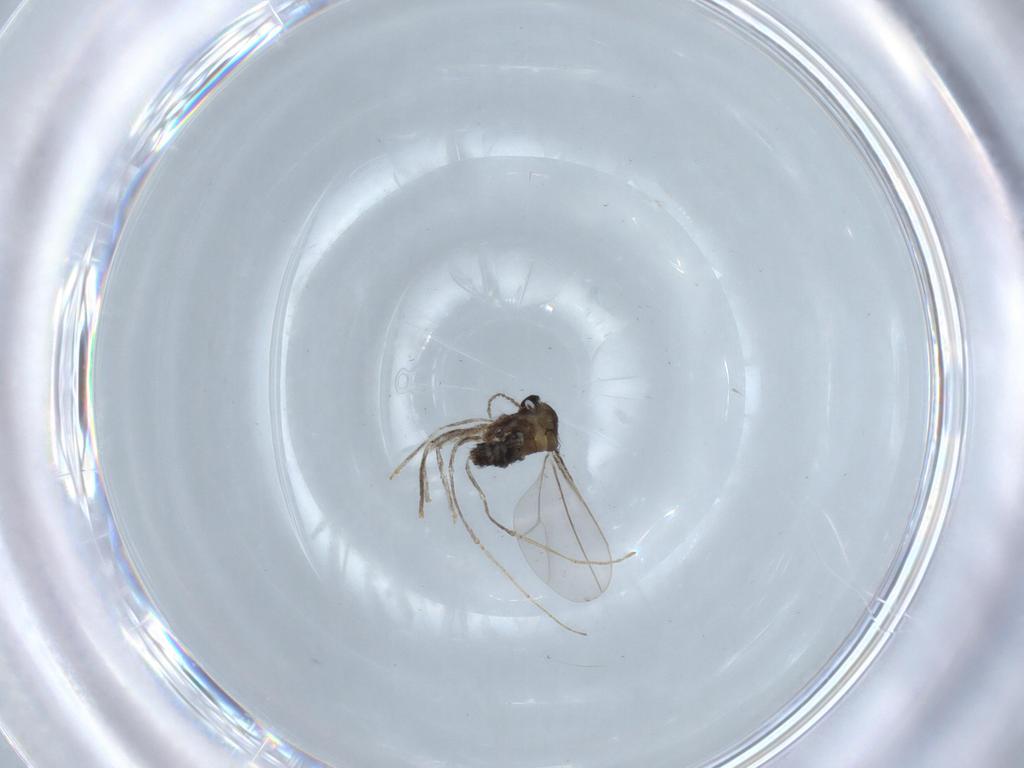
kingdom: Animalia
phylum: Arthropoda
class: Insecta
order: Diptera
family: Cecidomyiidae
